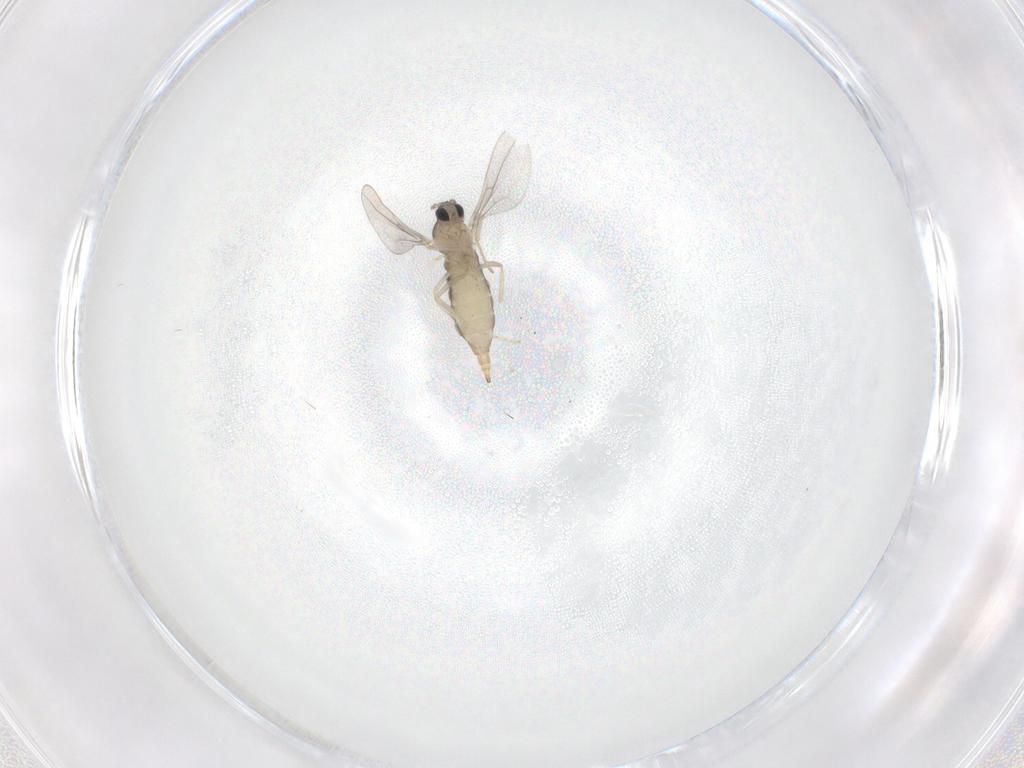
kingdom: Animalia
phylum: Arthropoda
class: Insecta
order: Diptera
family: Cecidomyiidae
